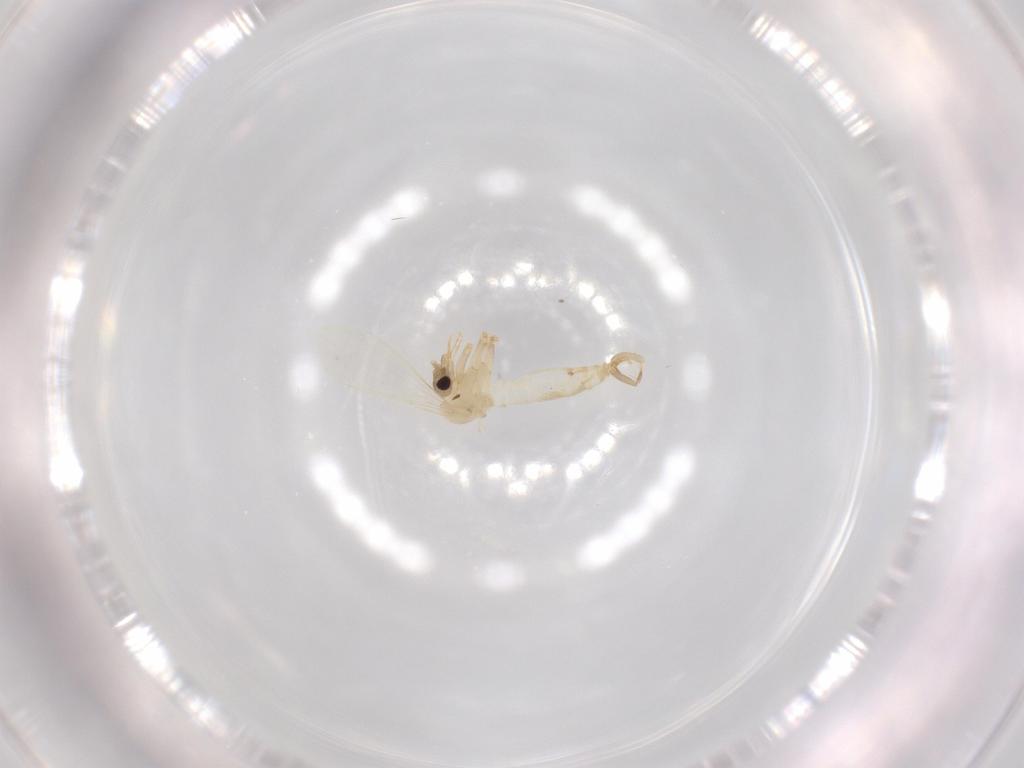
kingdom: Animalia
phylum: Arthropoda
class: Insecta
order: Diptera
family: Psychodidae
